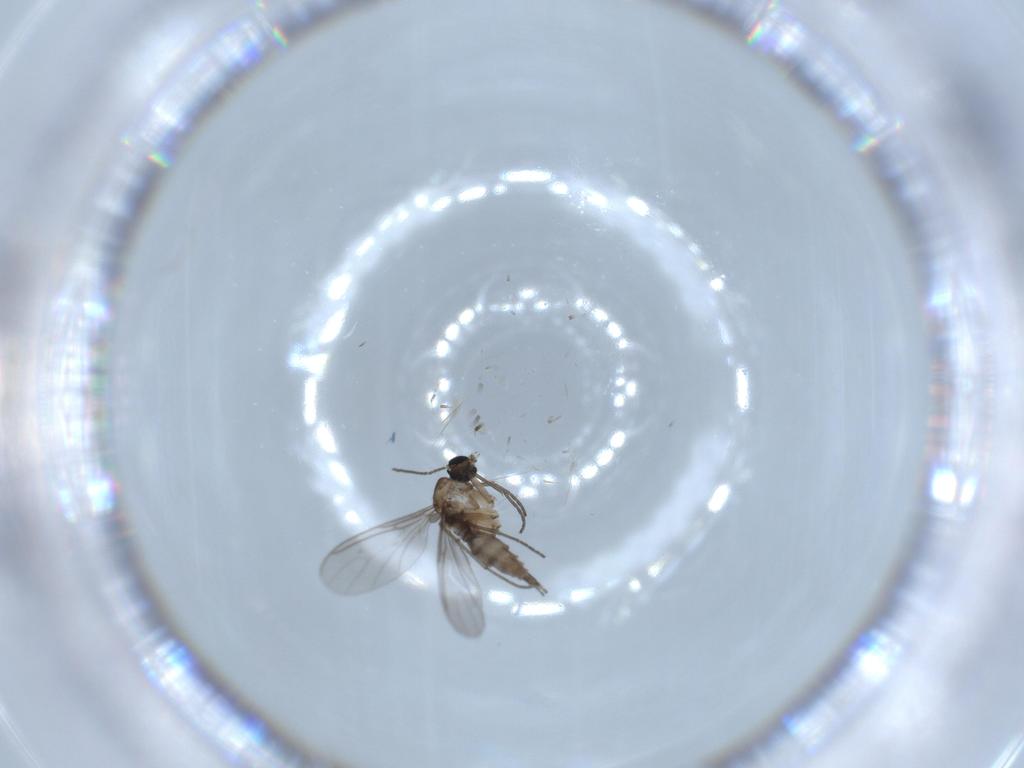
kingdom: Animalia
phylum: Arthropoda
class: Insecta
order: Diptera
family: Sciaridae
